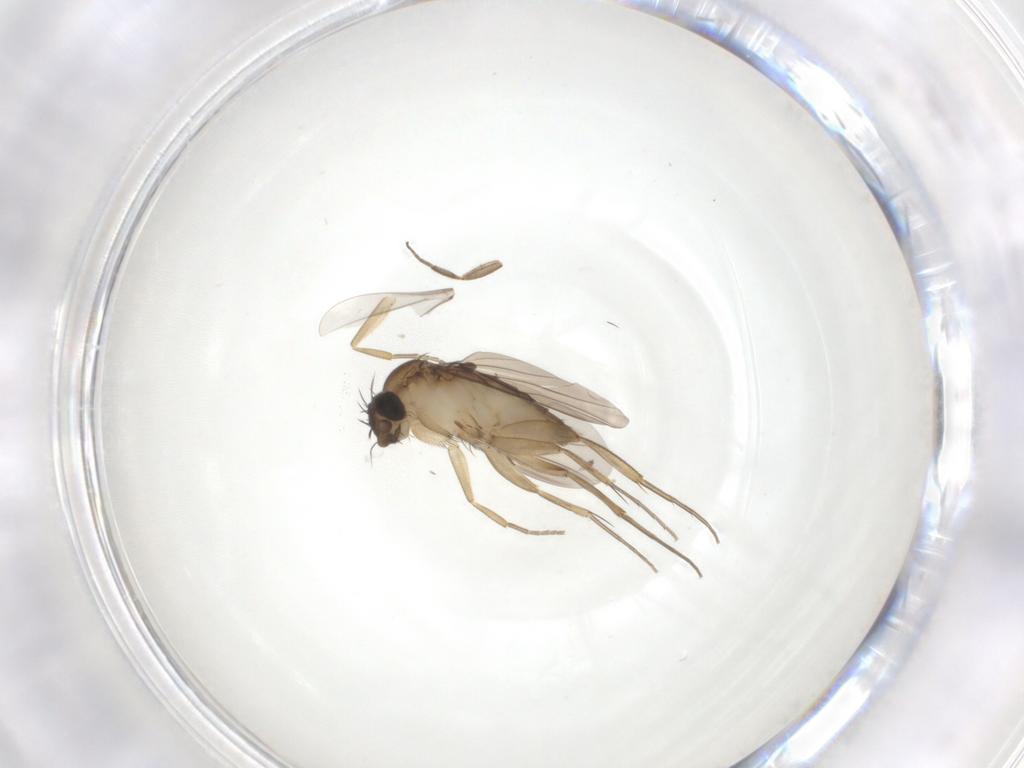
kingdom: Animalia
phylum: Arthropoda
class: Insecta
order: Diptera
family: Phoridae
